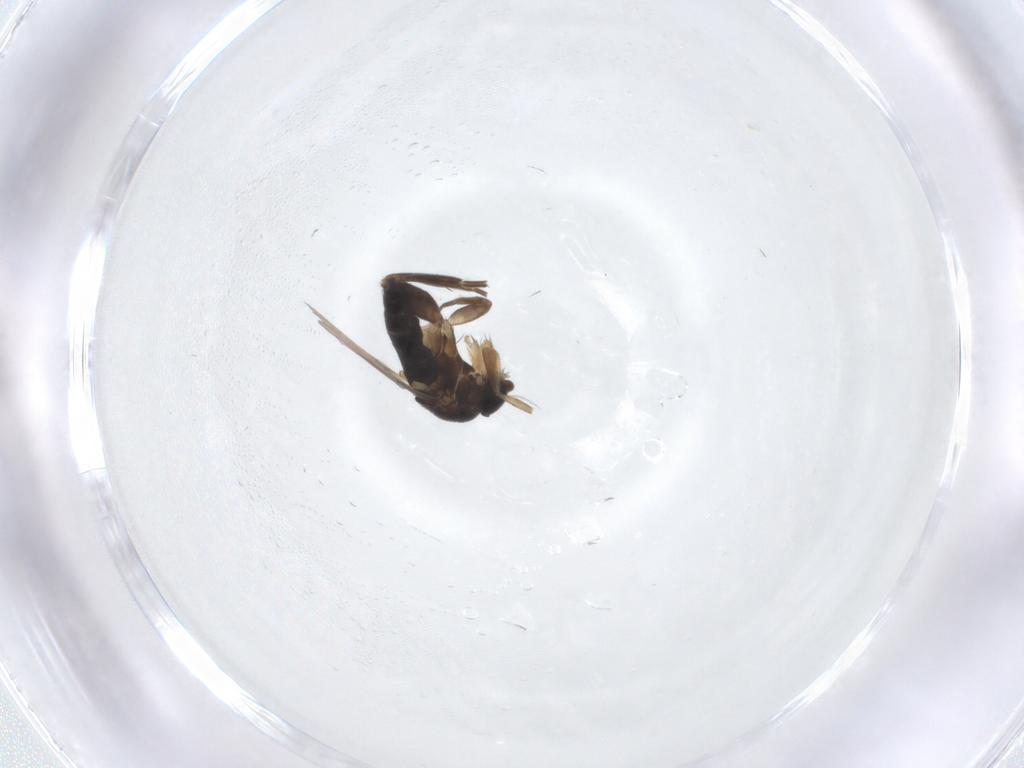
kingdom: Animalia
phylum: Arthropoda
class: Insecta
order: Diptera
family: Phoridae
